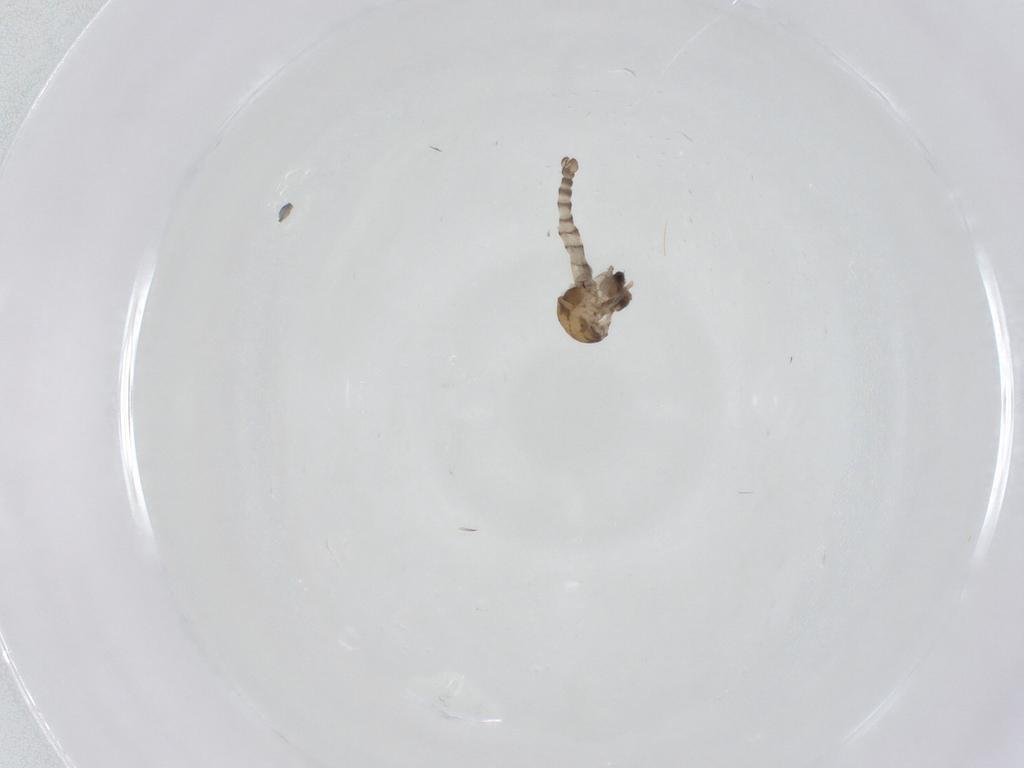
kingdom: Animalia
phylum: Arthropoda
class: Insecta
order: Diptera
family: Ceratopogonidae
